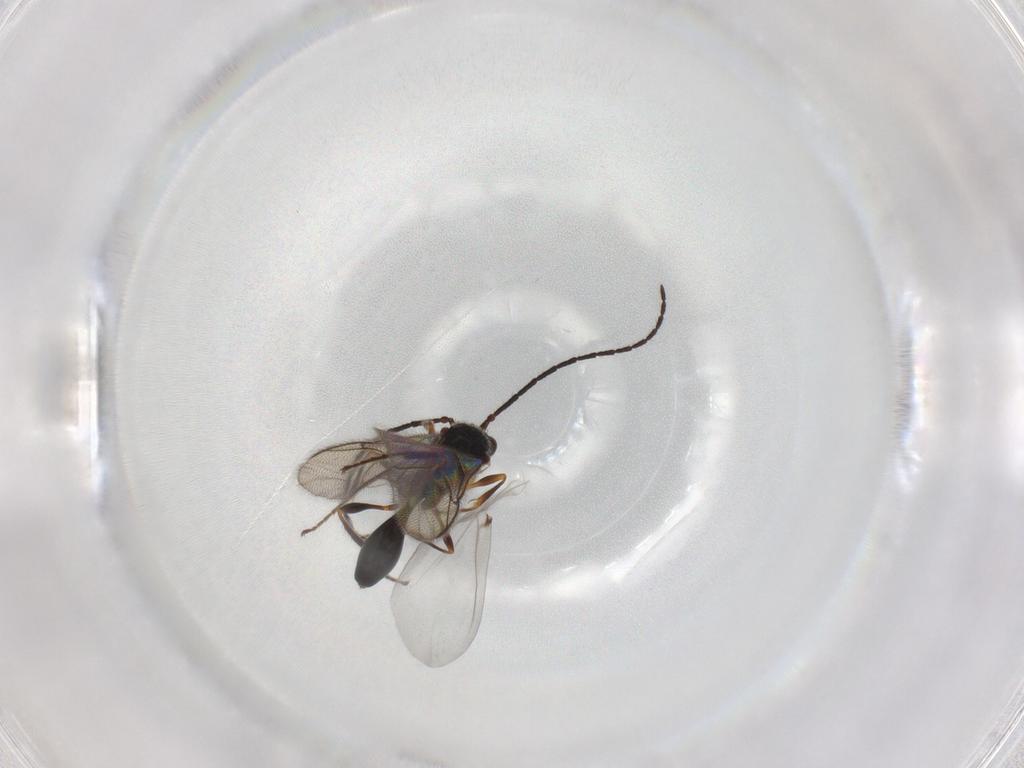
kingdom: Animalia
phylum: Arthropoda
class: Insecta
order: Hymenoptera
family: Diapriidae
